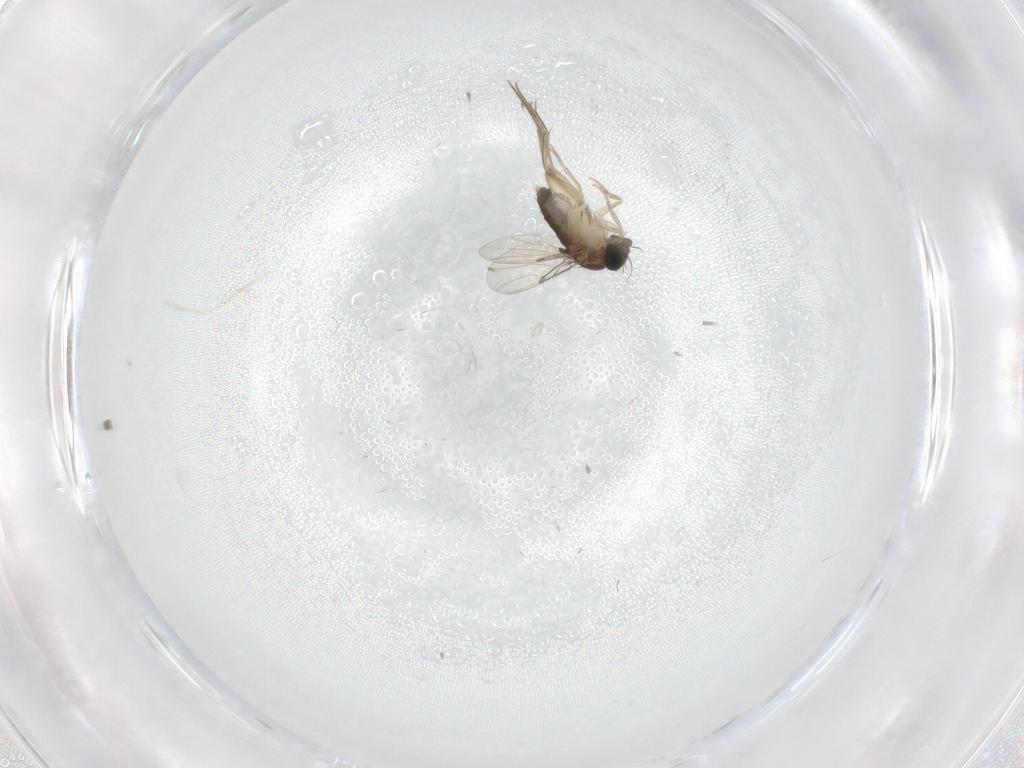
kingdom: Animalia
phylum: Arthropoda
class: Insecta
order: Diptera
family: Phoridae
